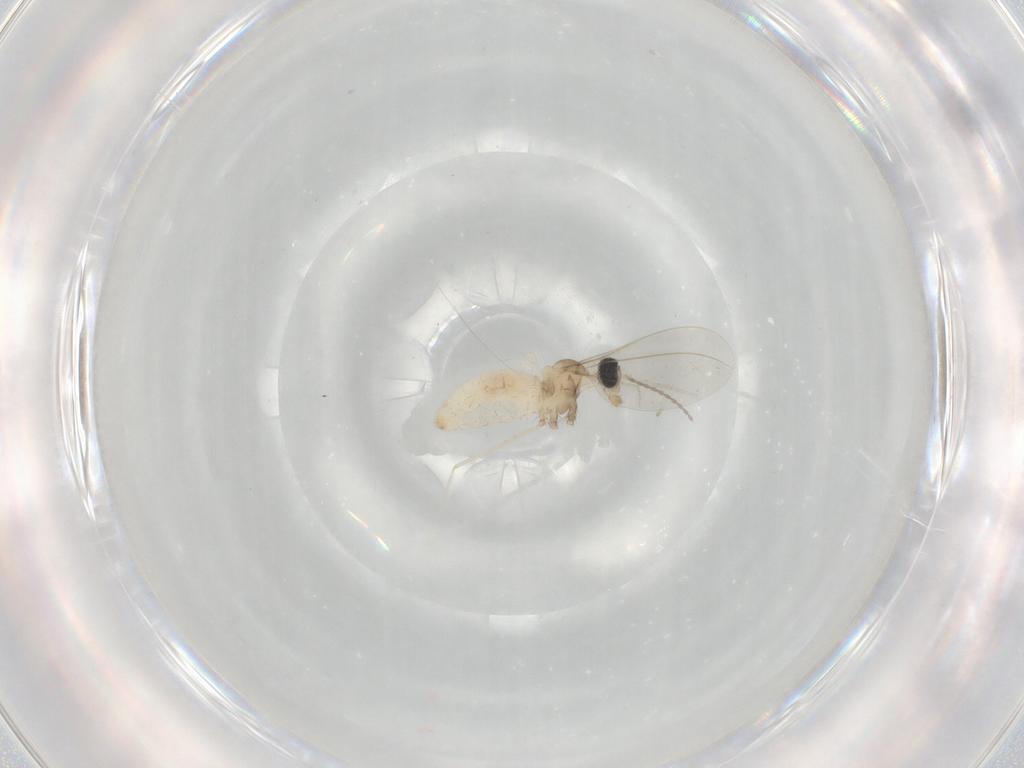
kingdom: Animalia
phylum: Arthropoda
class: Insecta
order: Diptera
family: Cecidomyiidae
